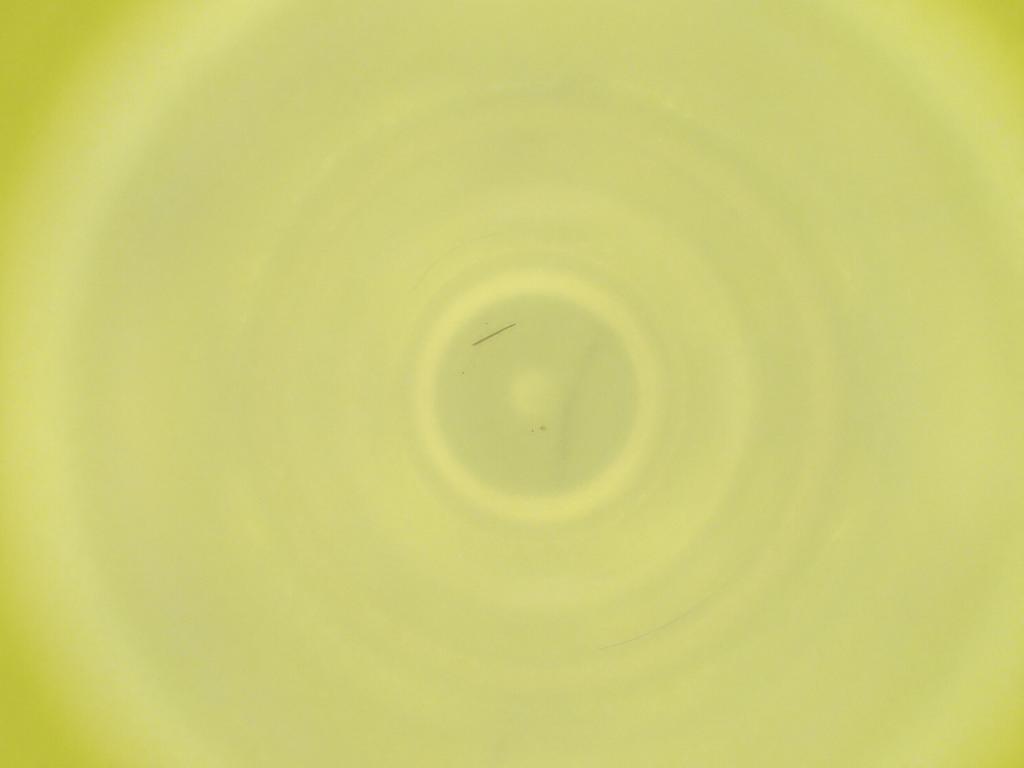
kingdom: Animalia
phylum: Arthropoda
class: Insecta
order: Diptera
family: Cecidomyiidae
